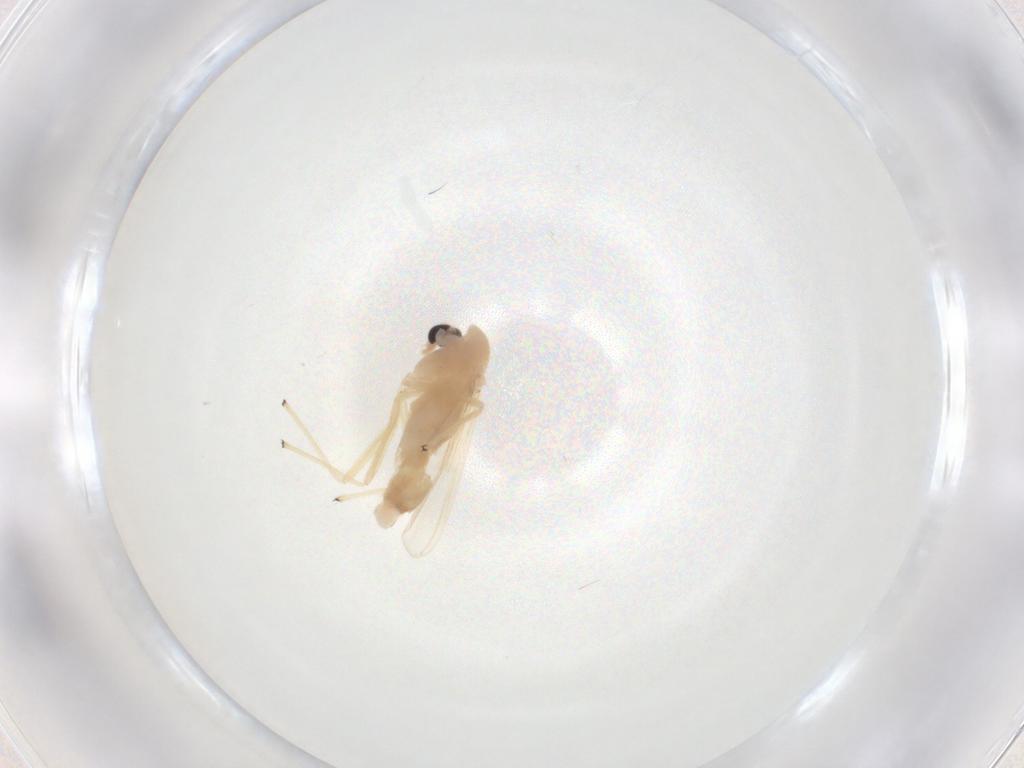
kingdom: Animalia
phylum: Arthropoda
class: Insecta
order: Diptera
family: Chironomidae
